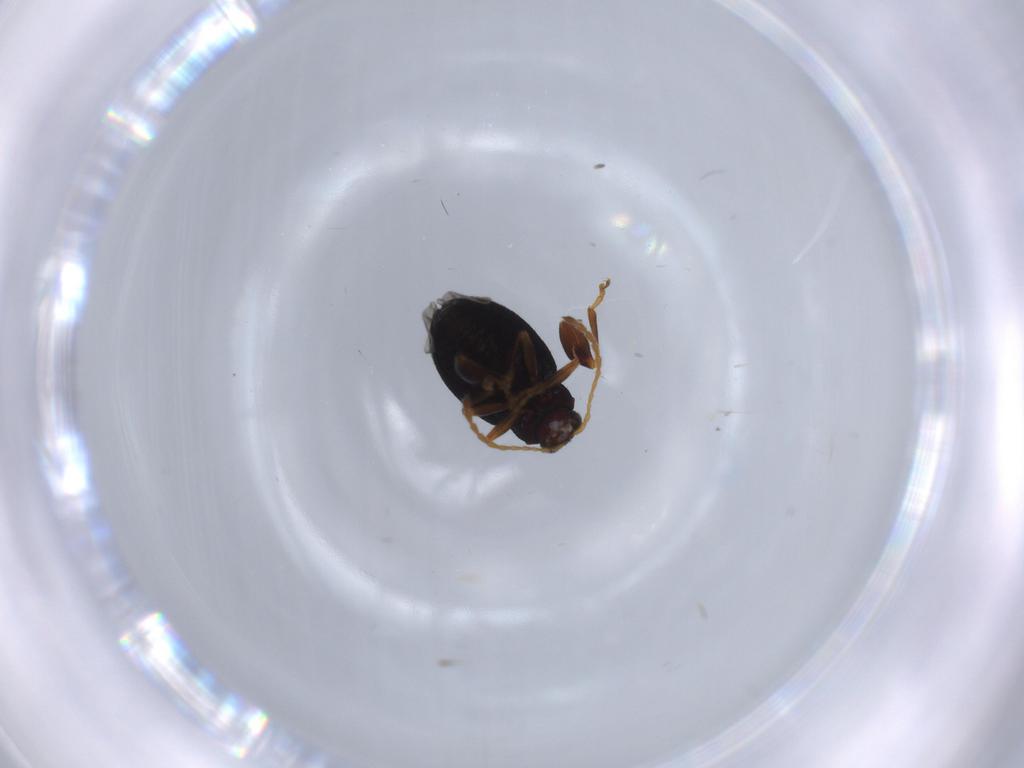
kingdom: Animalia
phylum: Arthropoda
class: Insecta
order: Coleoptera
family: Chrysomelidae
